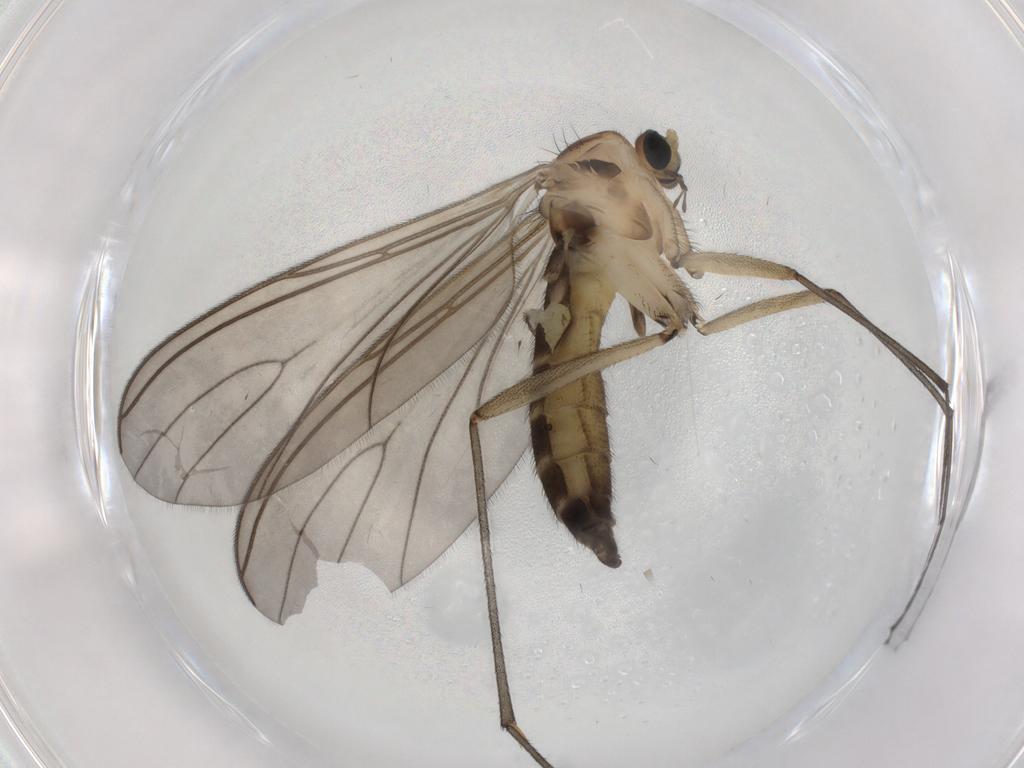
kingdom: Animalia
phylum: Arthropoda
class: Insecta
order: Diptera
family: Sciaridae
